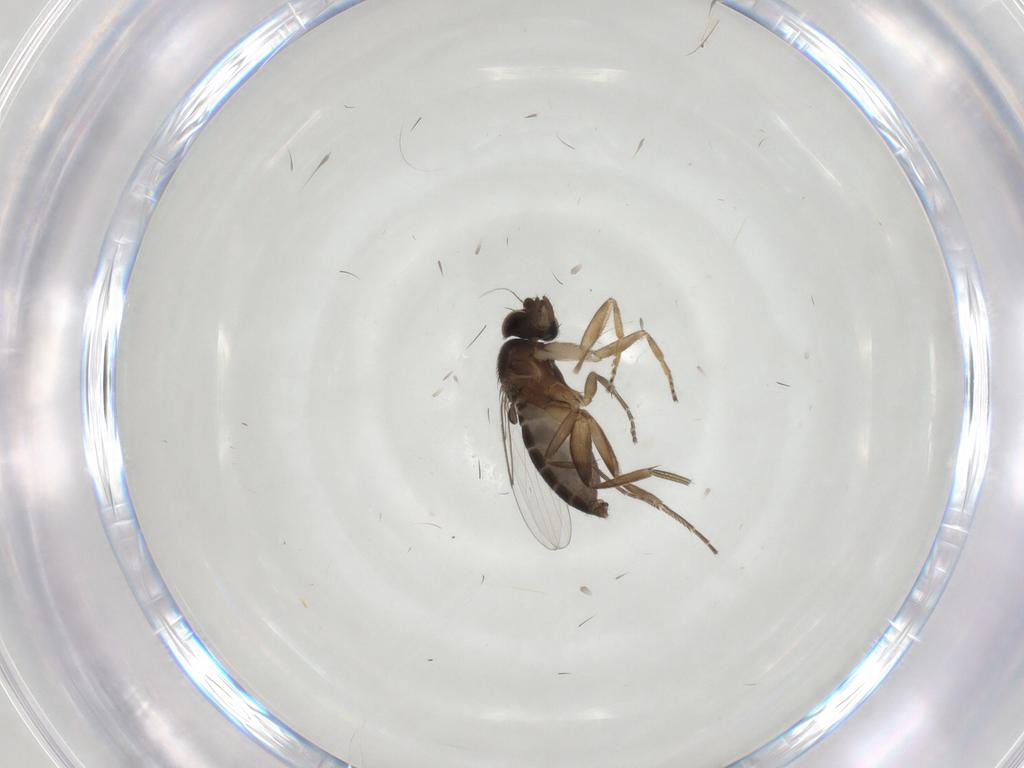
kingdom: Animalia
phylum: Arthropoda
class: Insecta
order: Diptera
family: Phoridae
